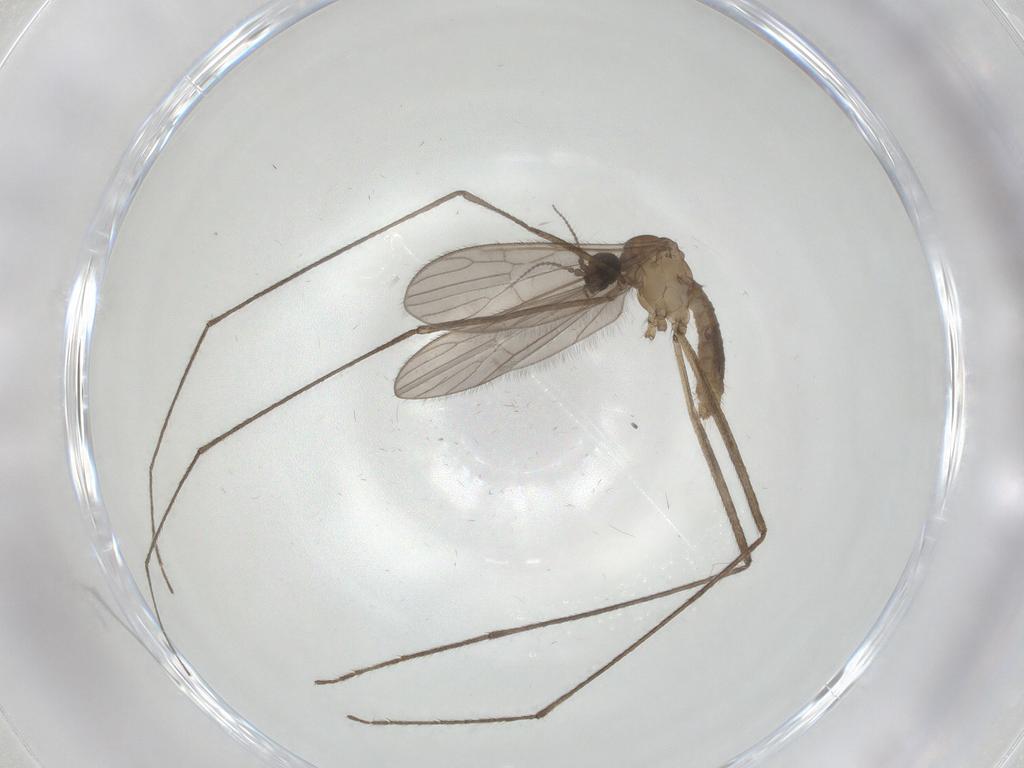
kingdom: Animalia
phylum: Arthropoda
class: Insecta
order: Diptera
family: Limoniidae
